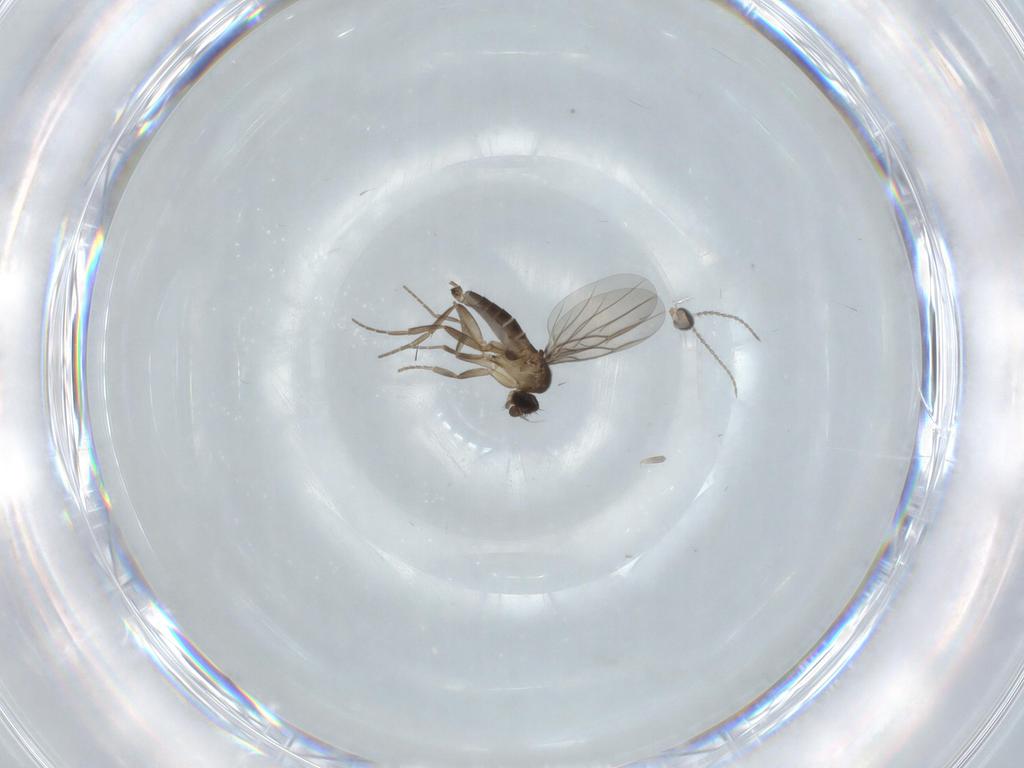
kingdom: Animalia
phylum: Arthropoda
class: Insecta
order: Diptera
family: Cecidomyiidae
